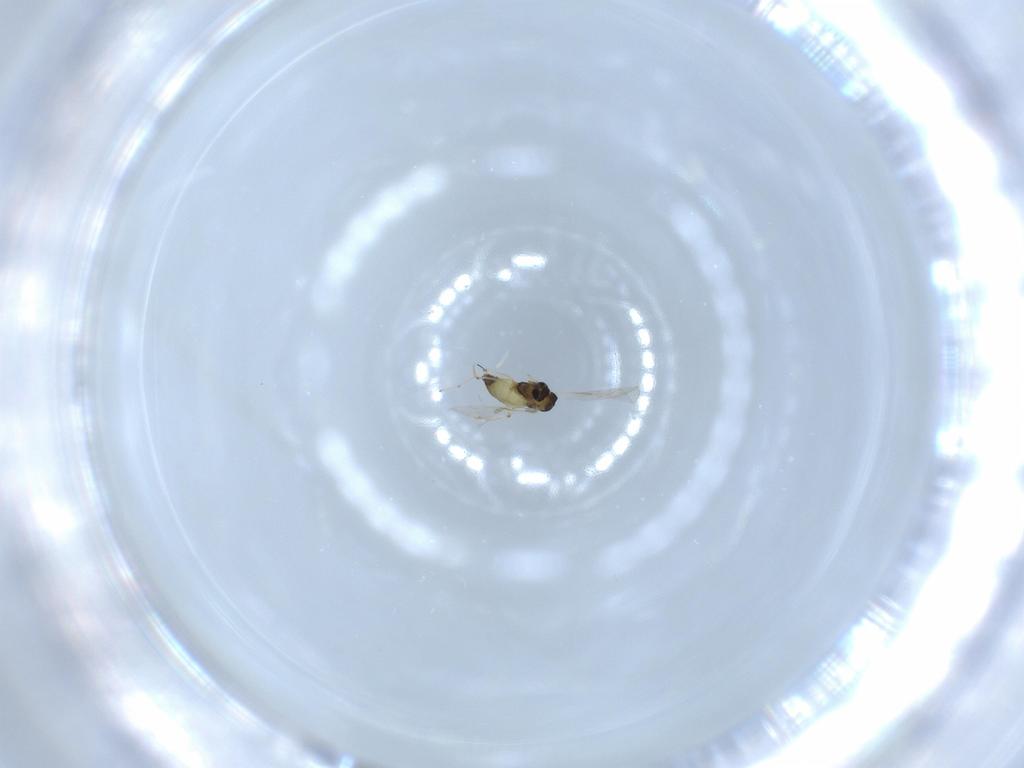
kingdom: Animalia
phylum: Arthropoda
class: Insecta
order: Diptera
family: Chironomidae
